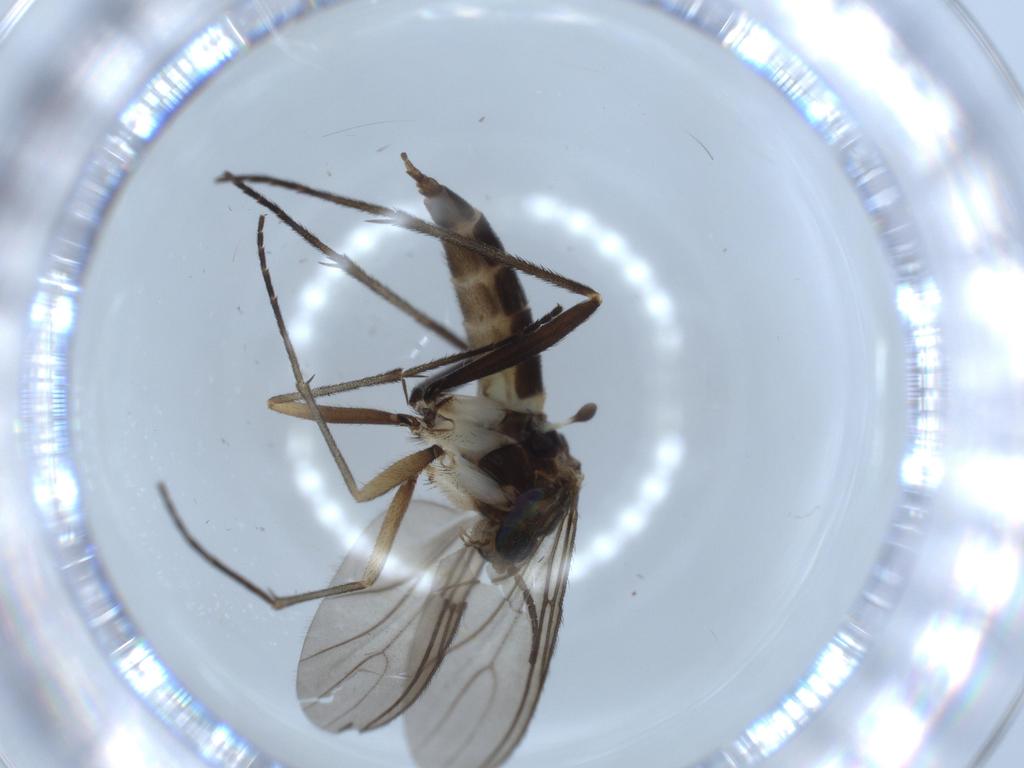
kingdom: Animalia
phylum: Arthropoda
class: Insecta
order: Diptera
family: Sciaridae
